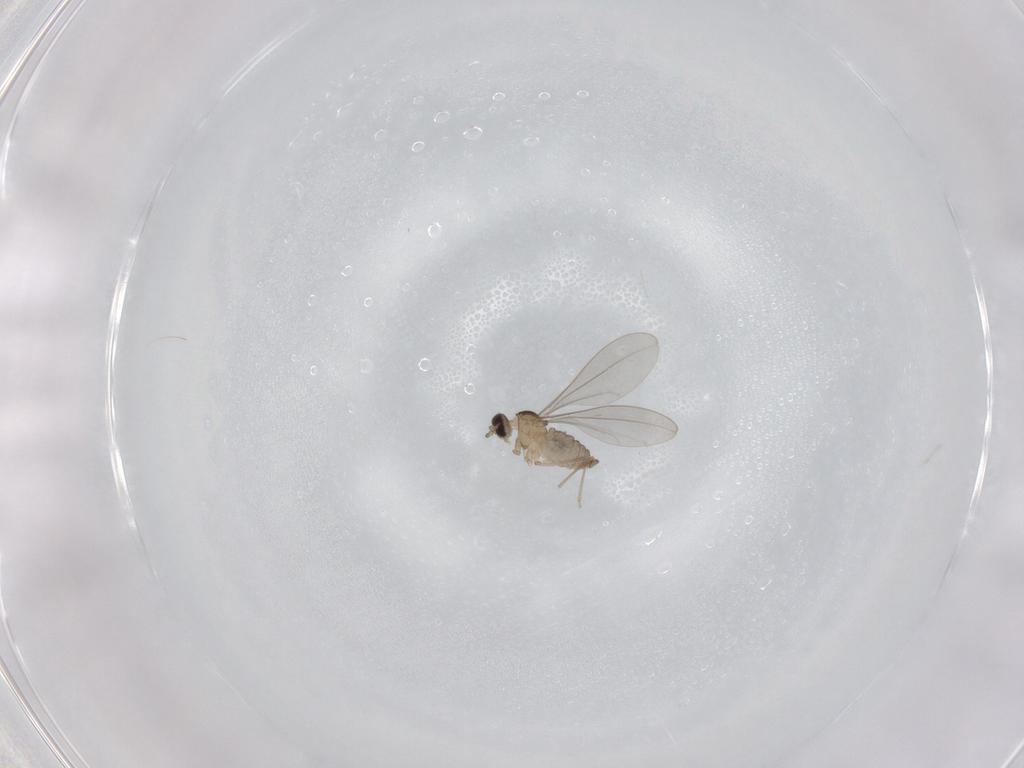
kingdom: Animalia
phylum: Arthropoda
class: Insecta
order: Diptera
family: Cecidomyiidae
